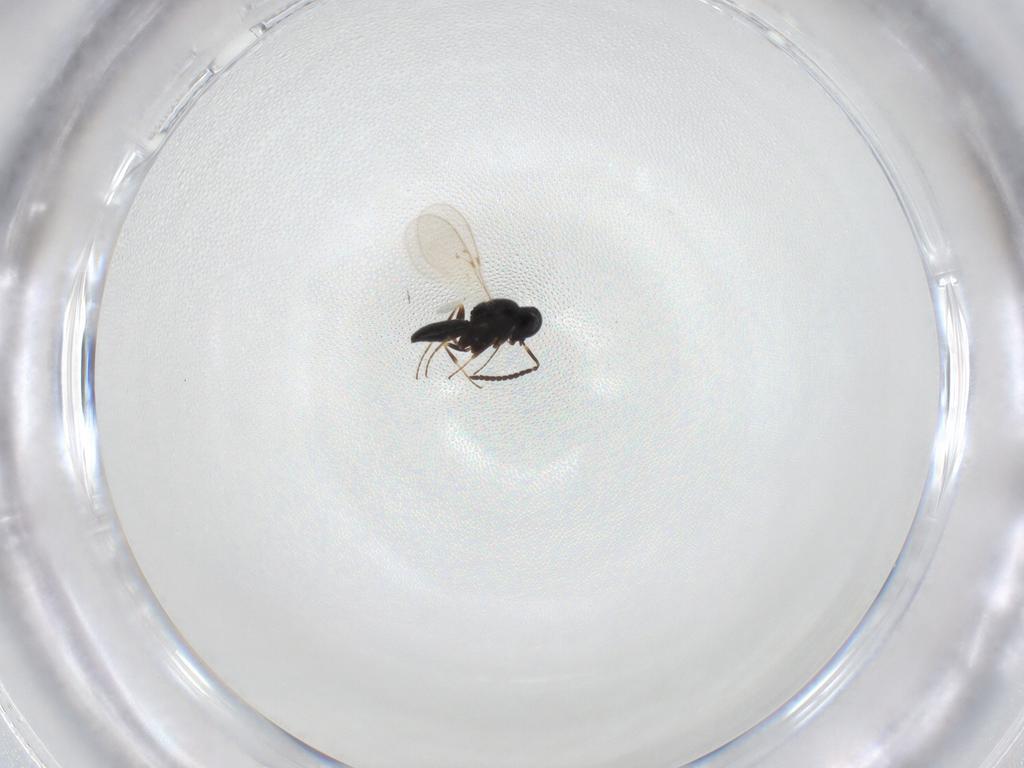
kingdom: Animalia
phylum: Arthropoda
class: Insecta
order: Hymenoptera
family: Scelionidae
